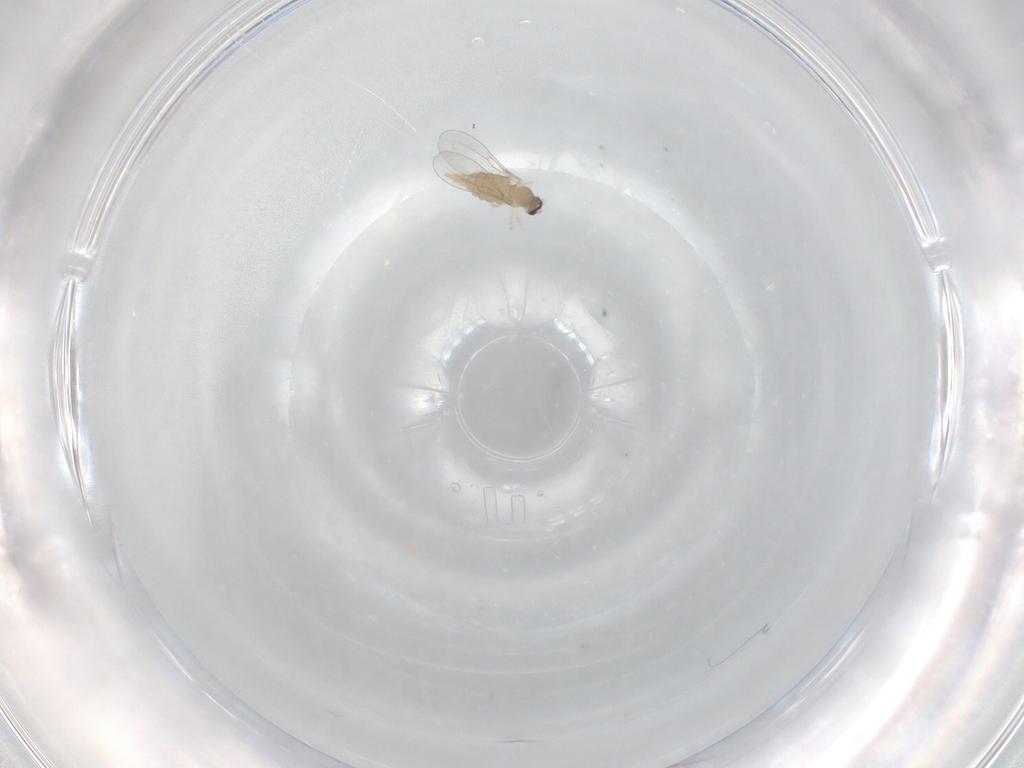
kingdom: Animalia
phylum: Arthropoda
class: Insecta
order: Diptera
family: Cecidomyiidae
